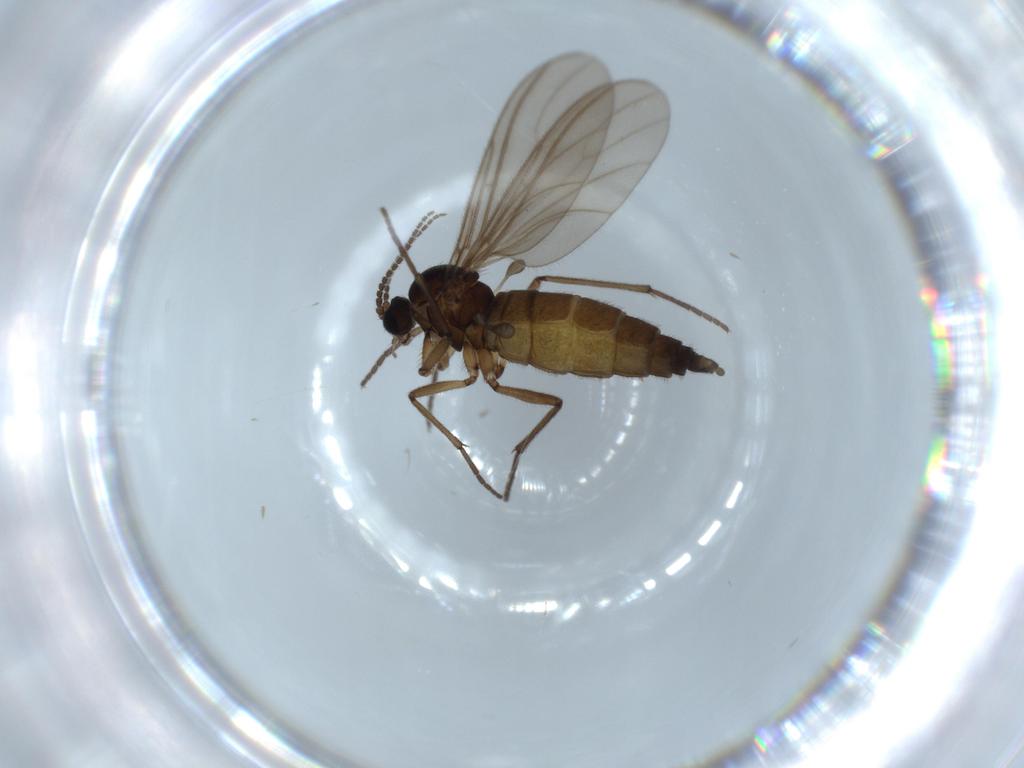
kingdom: Animalia
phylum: Arthropoda
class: Insecta
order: Diptera
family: Sciaridae
